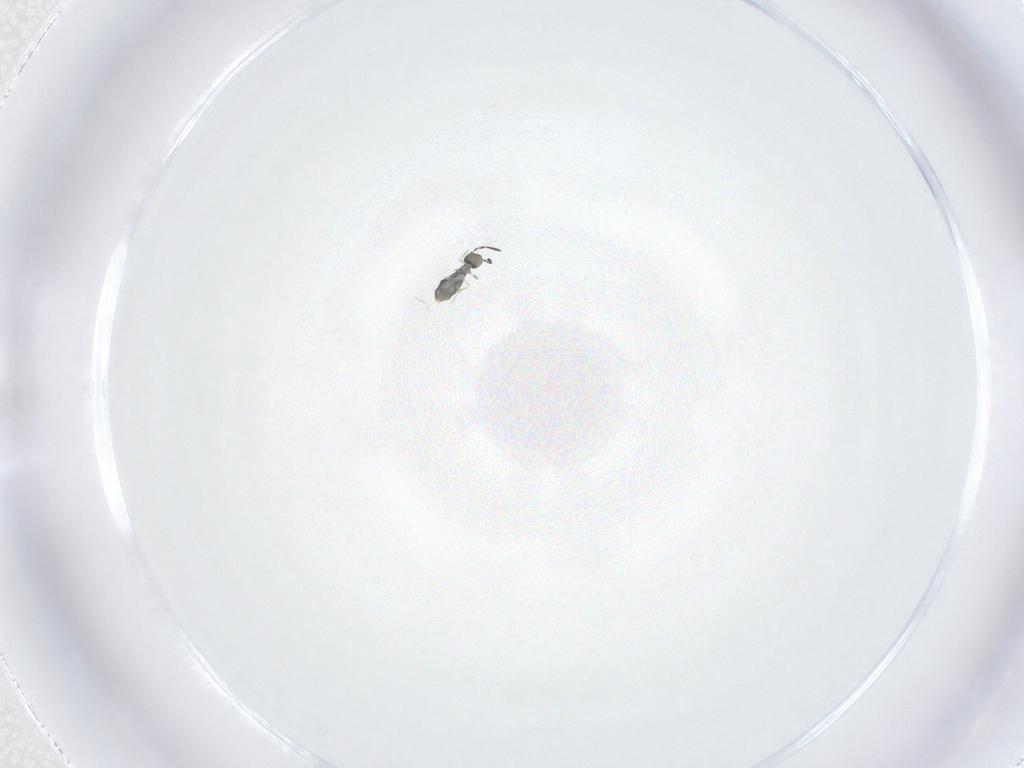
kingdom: Animalia
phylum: Arthropoda
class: Collembola
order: Symphypleona
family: Katiannidae
